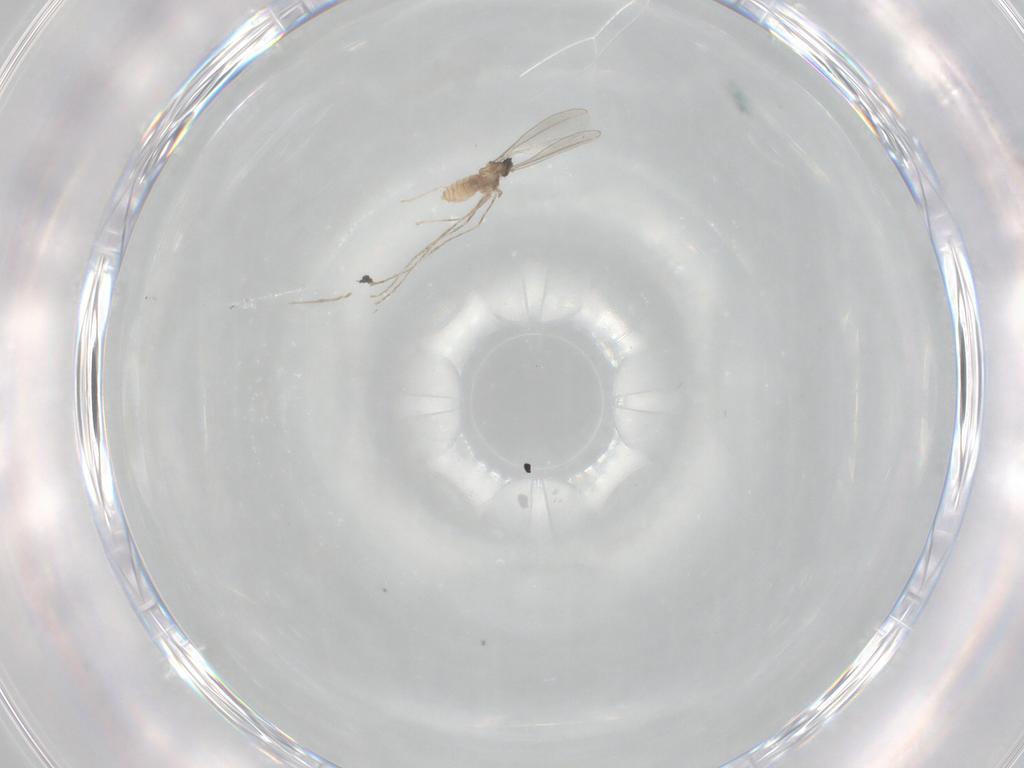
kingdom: Animalia
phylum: Arthropoda
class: Insecta
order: Diptera
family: Cecidomyiidae
